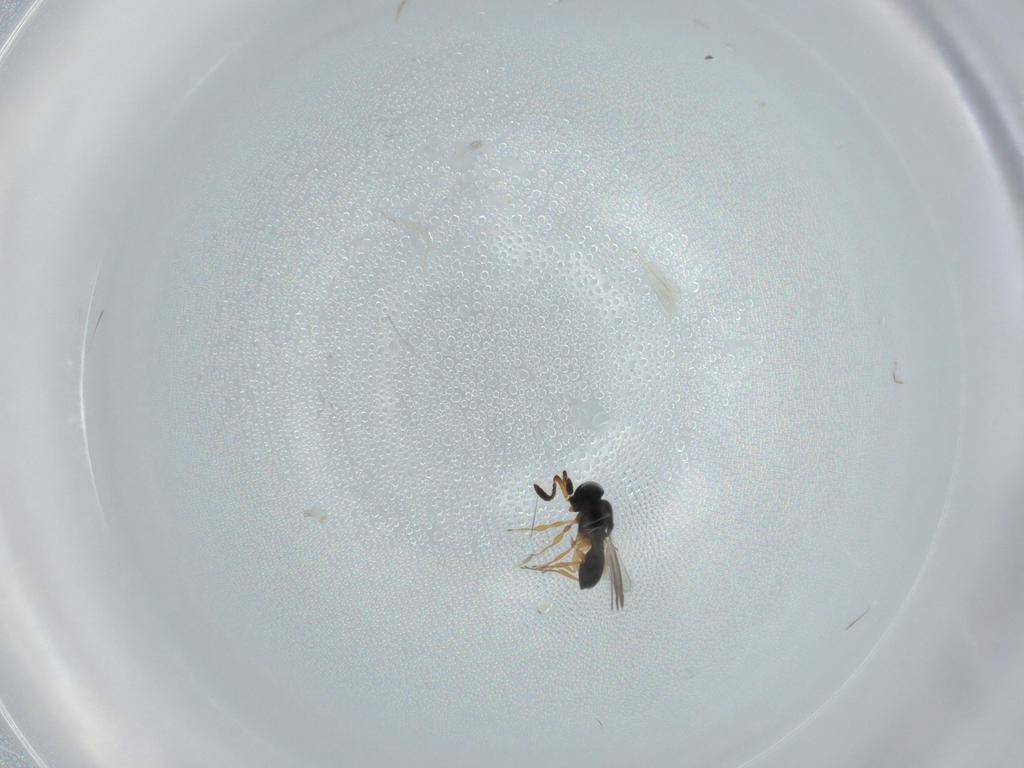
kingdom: Animalia
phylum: Arthropoda
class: Insecta
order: Hymenoptera
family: Scelionidae
